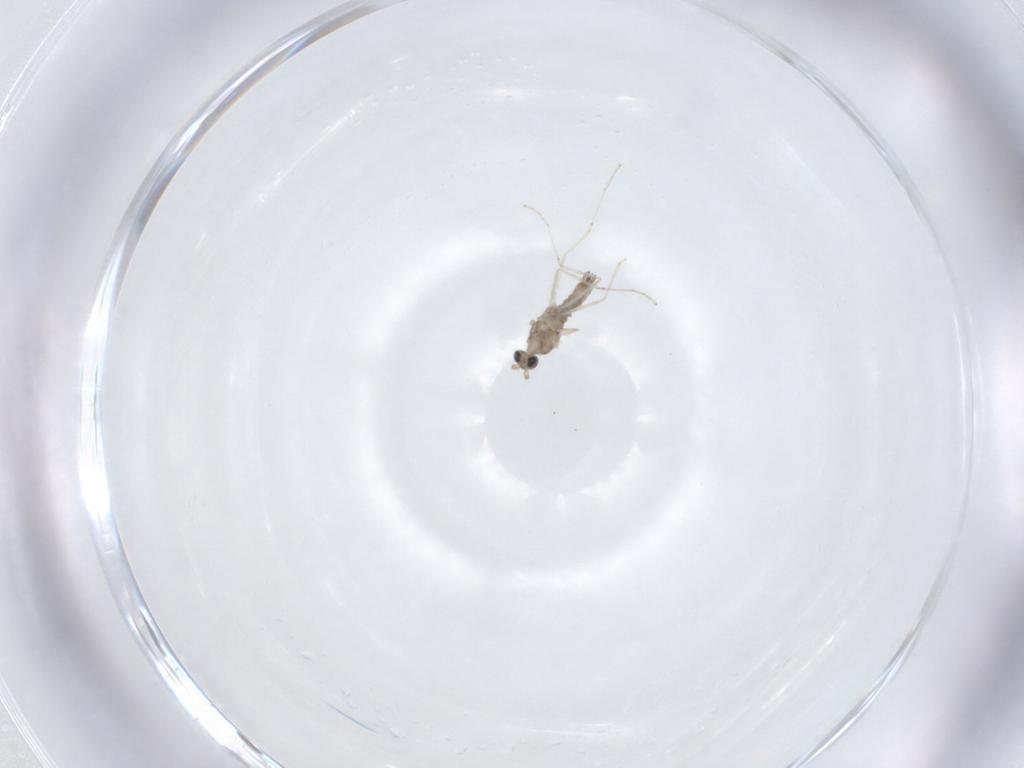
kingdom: Animalia
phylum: Arthropoda
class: Insecta
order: Diptera
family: Cecidomyiidae
